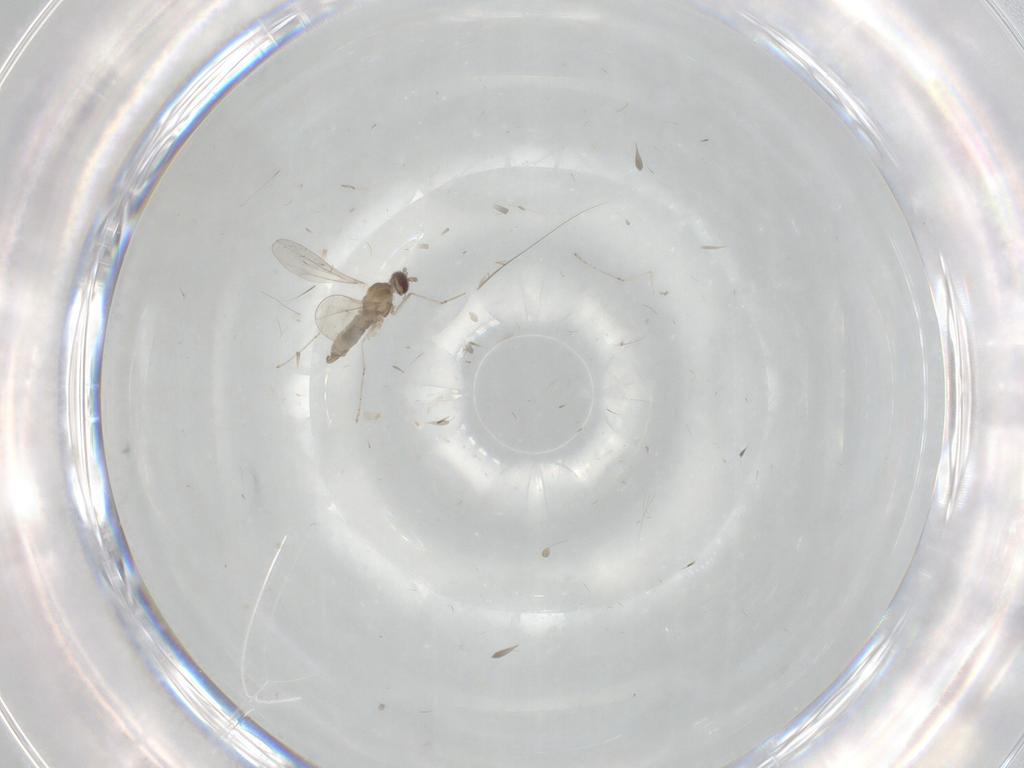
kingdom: Animalia
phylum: Arthropoda
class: Insecta
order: Diptera
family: Cecidomyiidae
